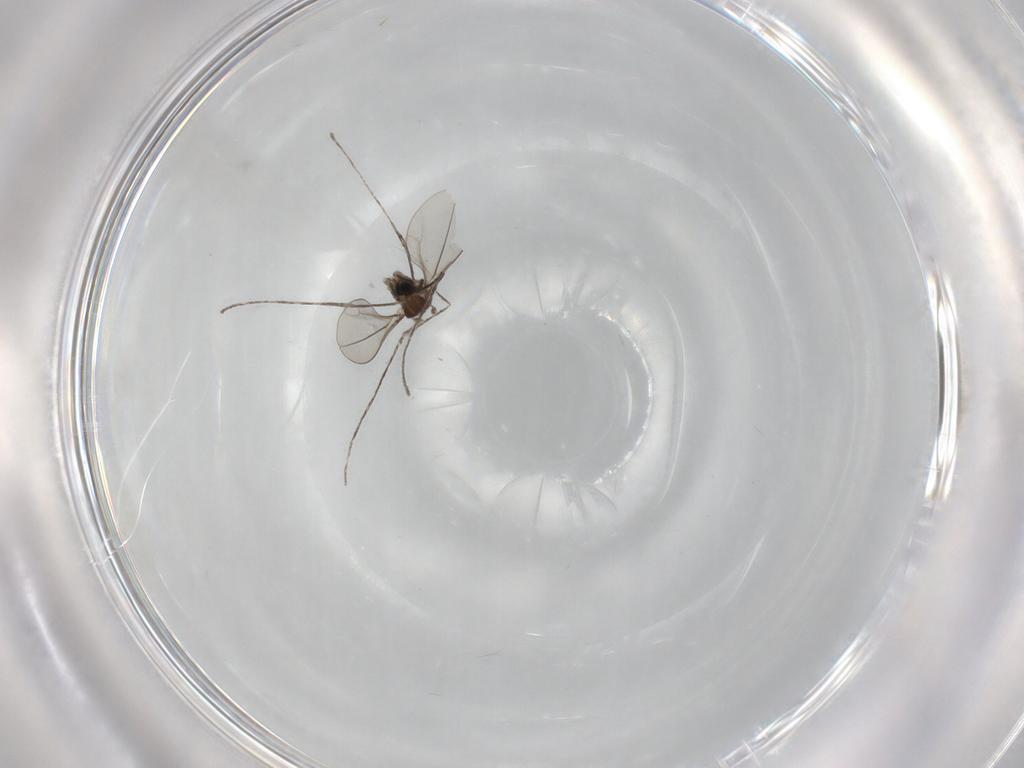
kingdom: Animalia
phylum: Arthropoda
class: Insecta
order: Diptera
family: Cecidomyiidae
